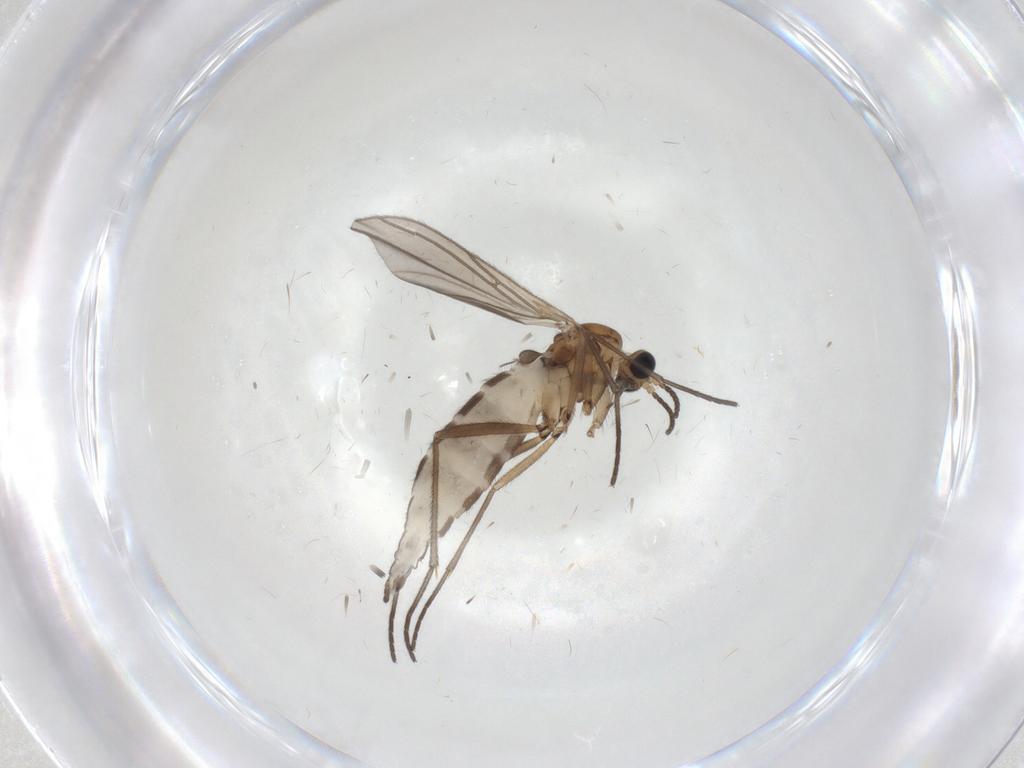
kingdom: Animalia
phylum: Arthropoda
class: Insecta
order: Diptera
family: Sciaridae
